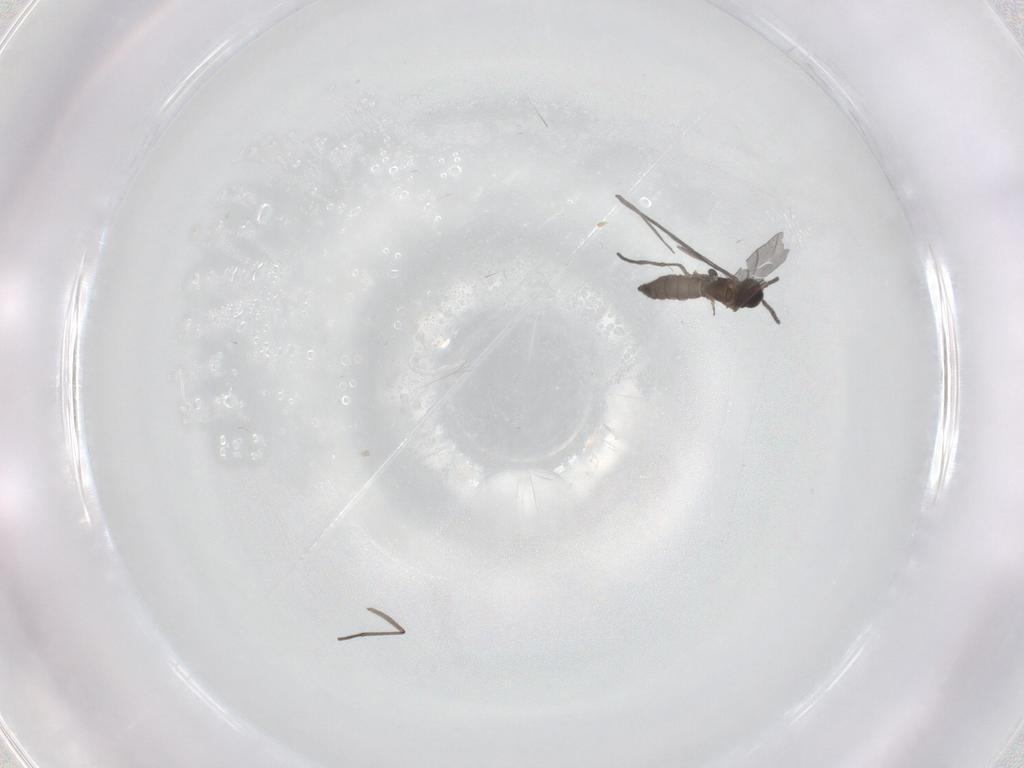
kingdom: Animalia
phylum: Arthropoda
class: Insecta
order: Diptera
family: Sciaridae
